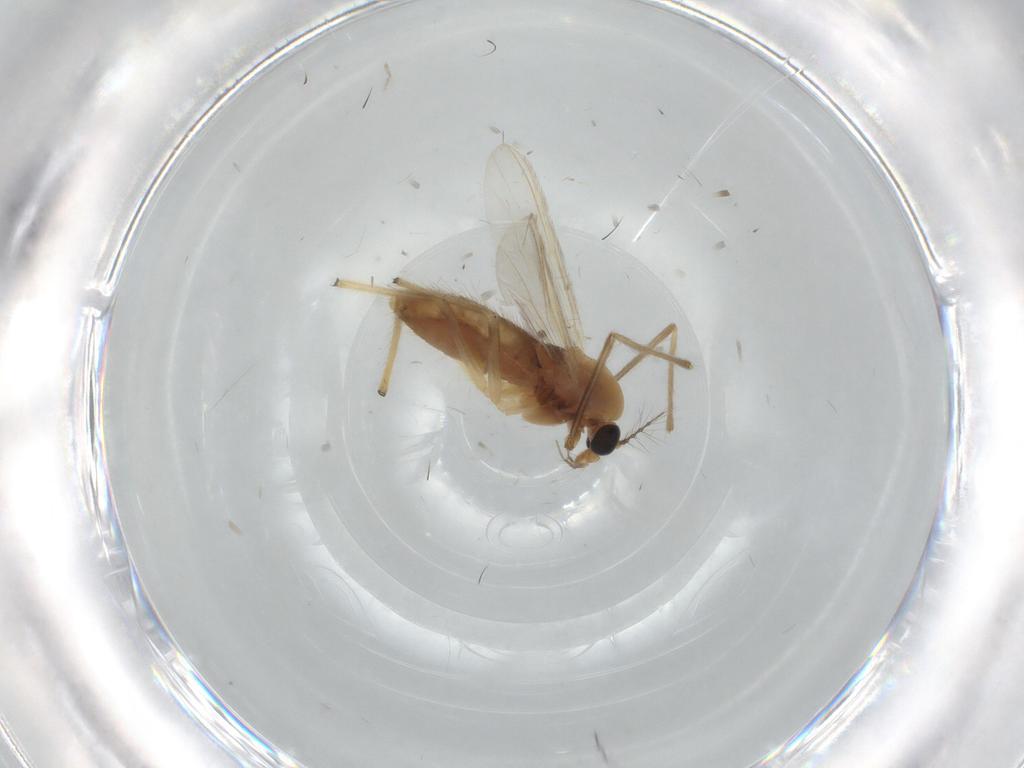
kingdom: Animalia
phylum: Arthropoda
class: Insecta
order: Diptera
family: Chironomidae
